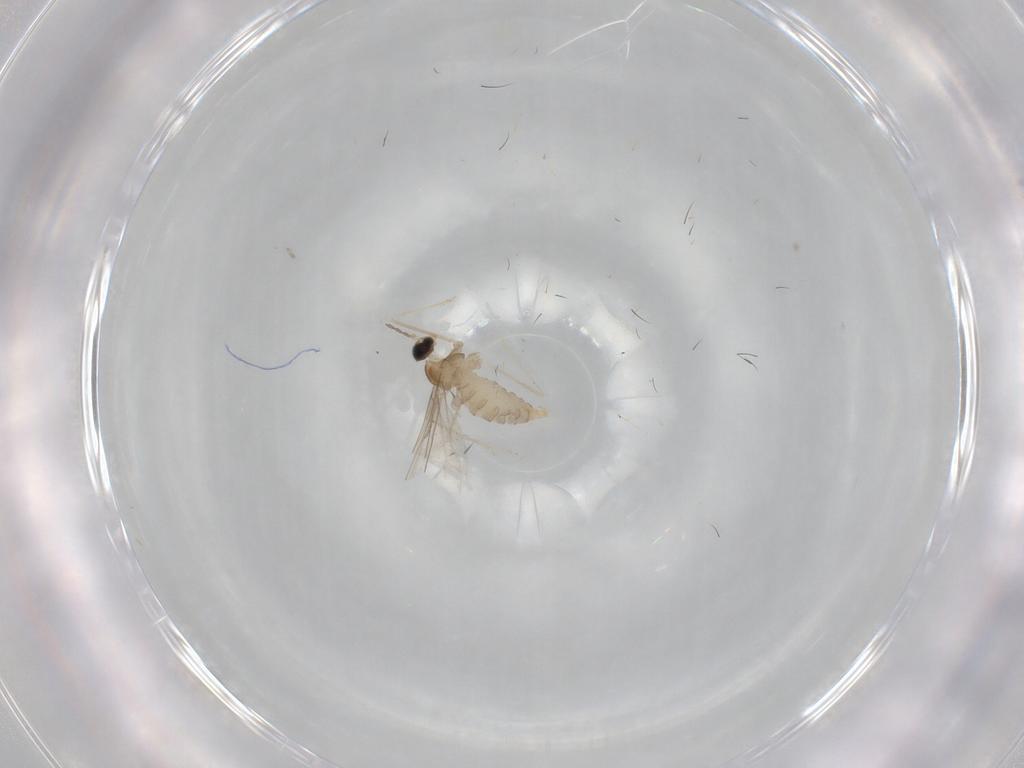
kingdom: Animalia
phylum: Arthropoda
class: Insecta
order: Diptera
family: Cecidomyiidae
